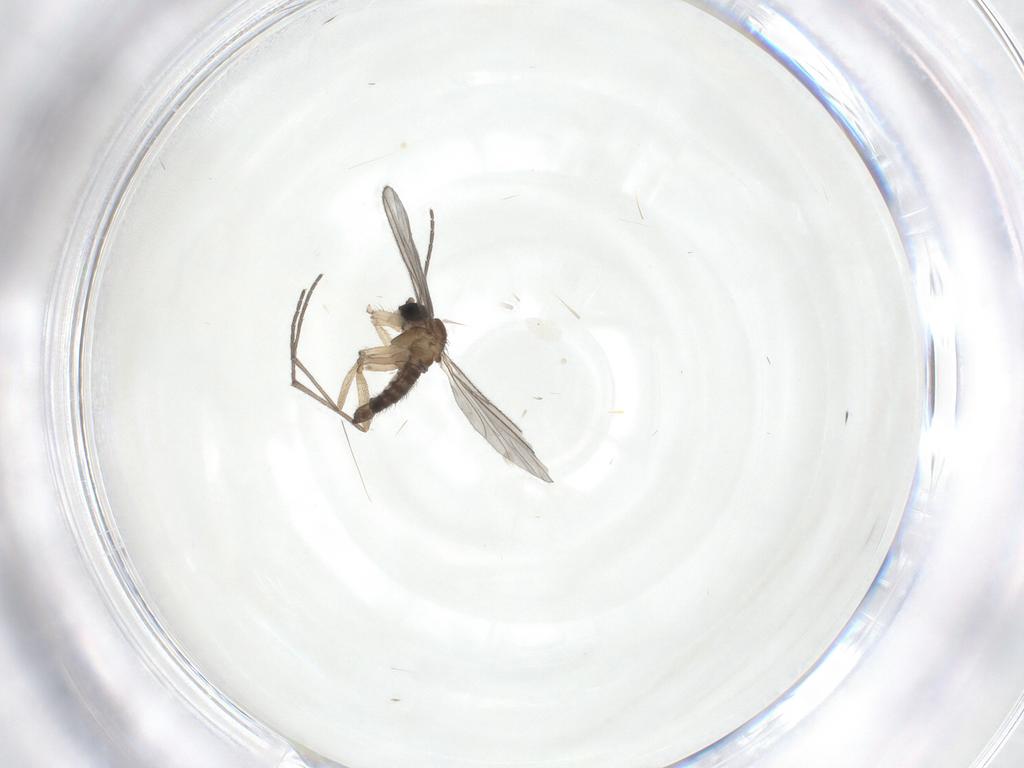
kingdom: Animalia
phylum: Arthropoda
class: Insecta
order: Diptera
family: Sciaridae
